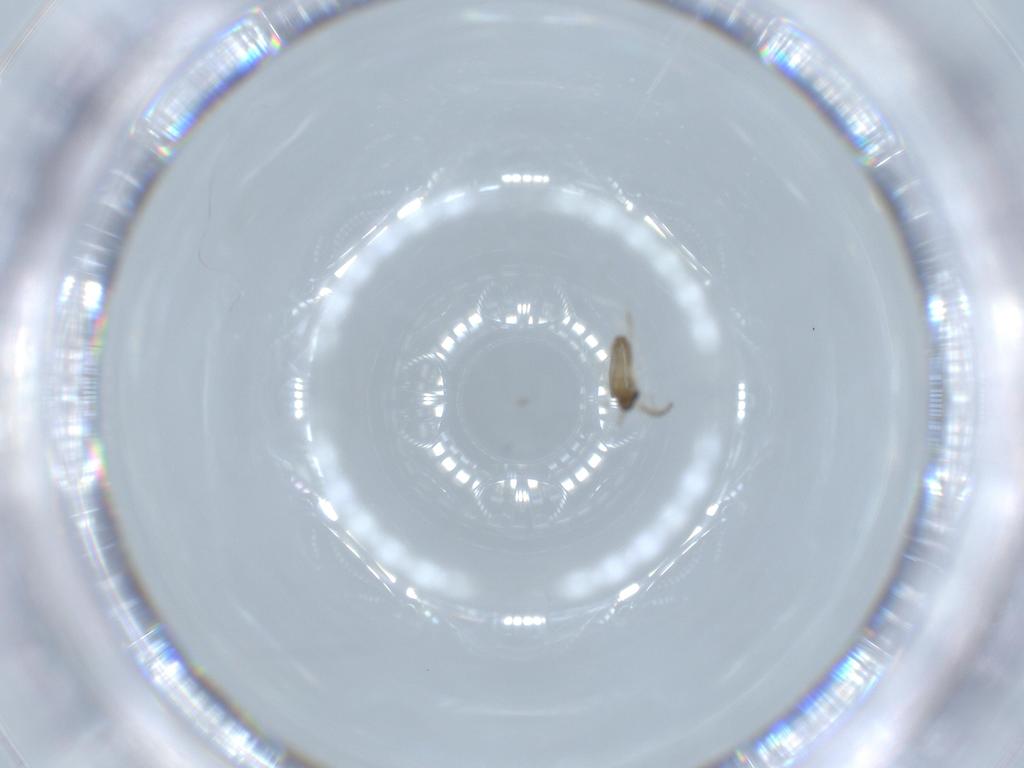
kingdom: Animalia
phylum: Arthropoda
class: Insecta
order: Diptera
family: Cecidomyiidae
